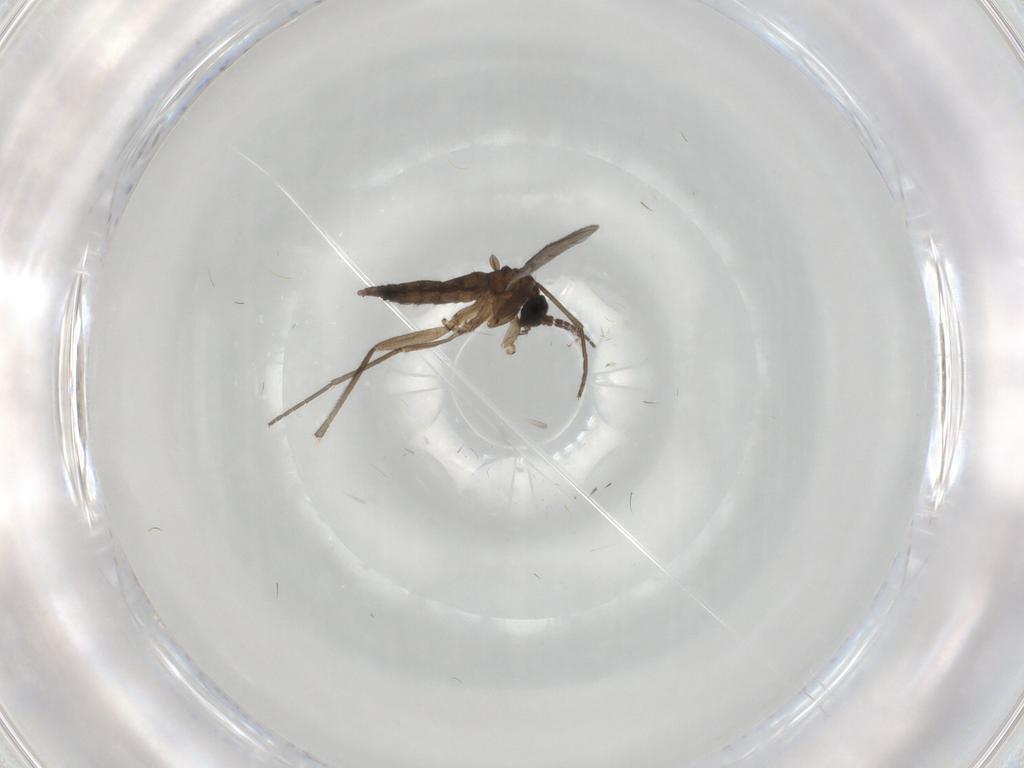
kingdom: Animalia
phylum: Arthropoda
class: Insecta
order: Diptera
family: Sciaridae
